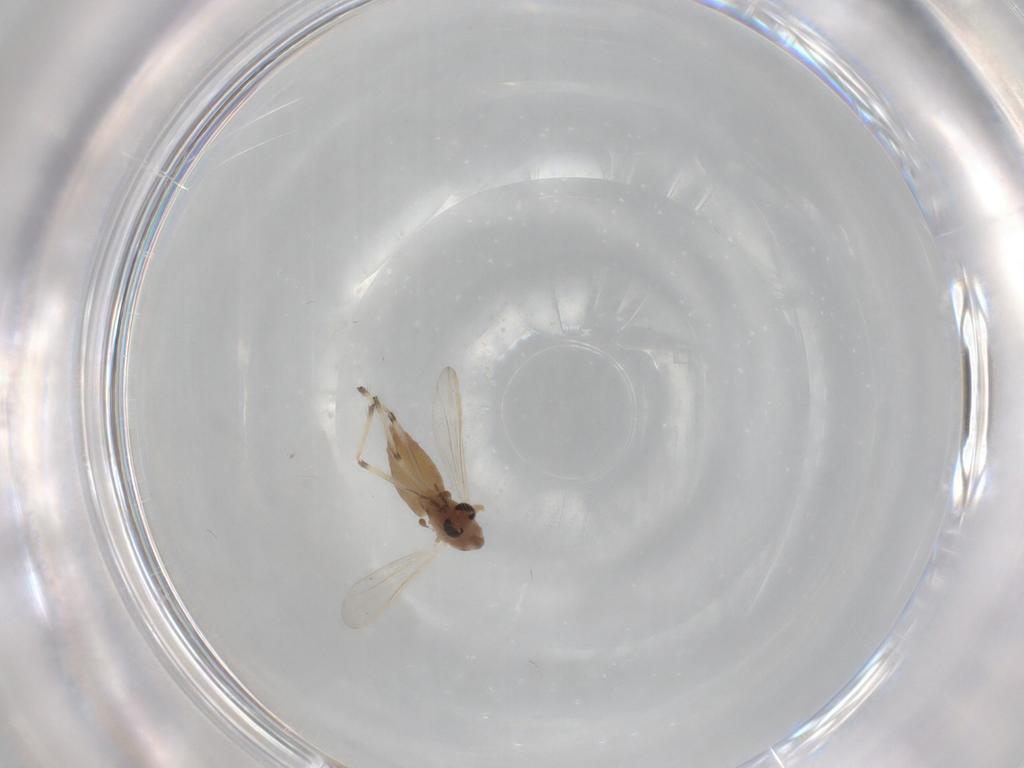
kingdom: Animalia
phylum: Arthropoda
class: Insecta
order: Diptera
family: Chironomidae
